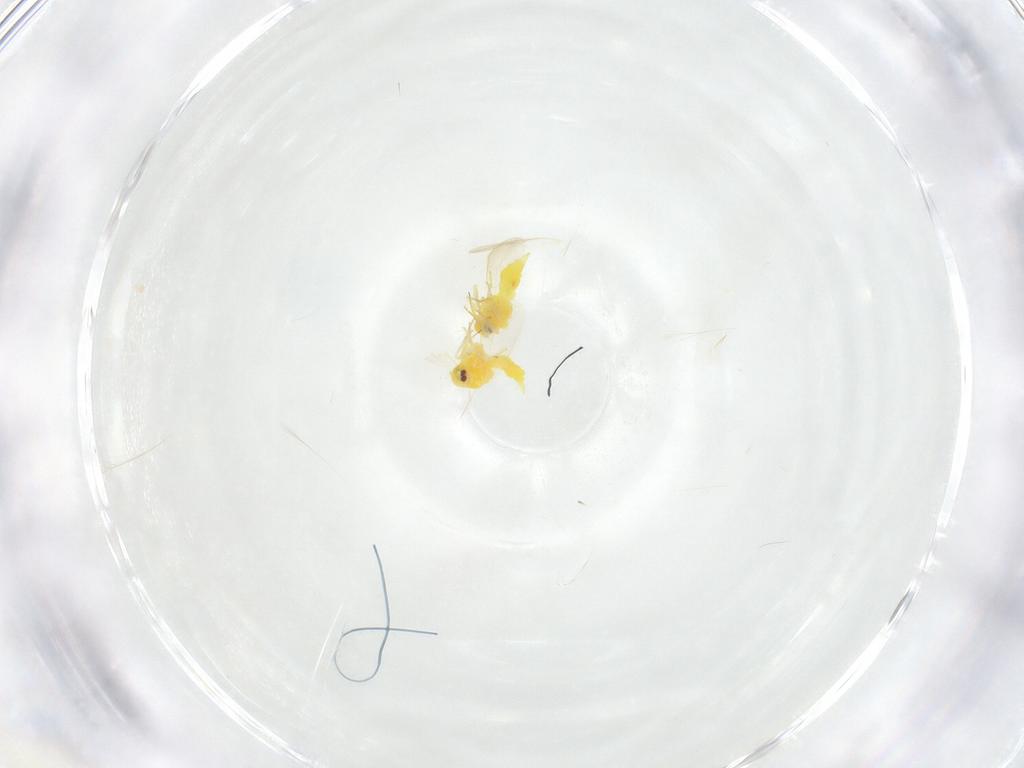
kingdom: Animalia
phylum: Arthropoda
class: Insecta
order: Hemiptera
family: Aleyrodidae
